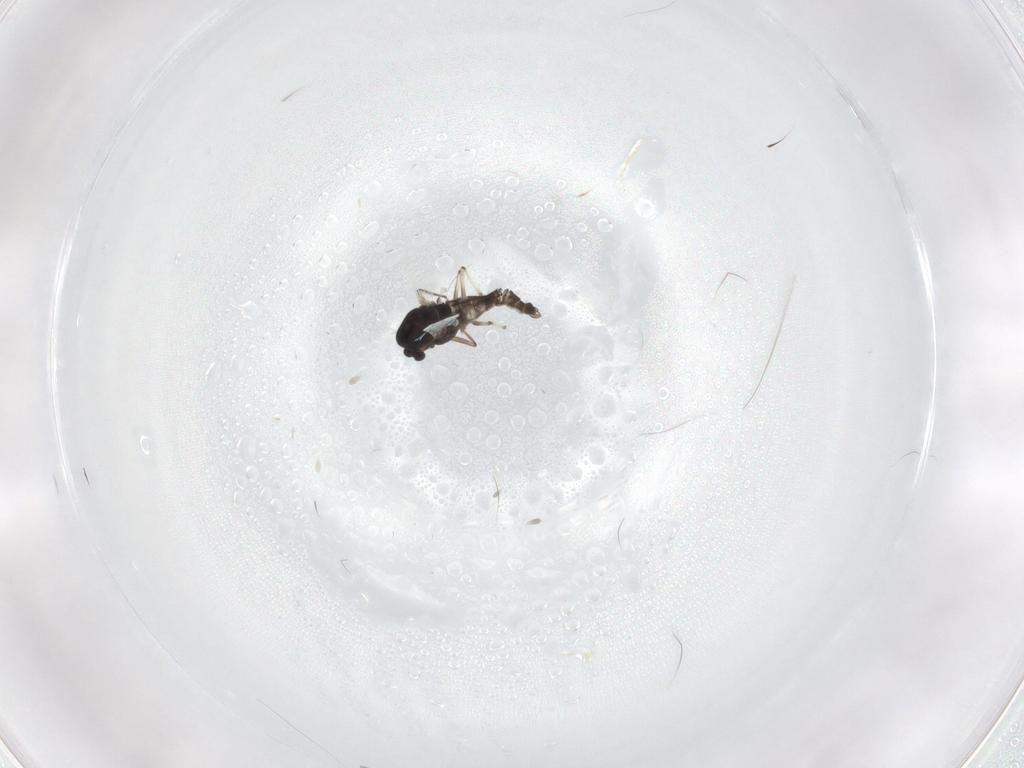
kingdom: Animalia
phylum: Arthropoda
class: Insecta
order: Diptera
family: Chironomidae
